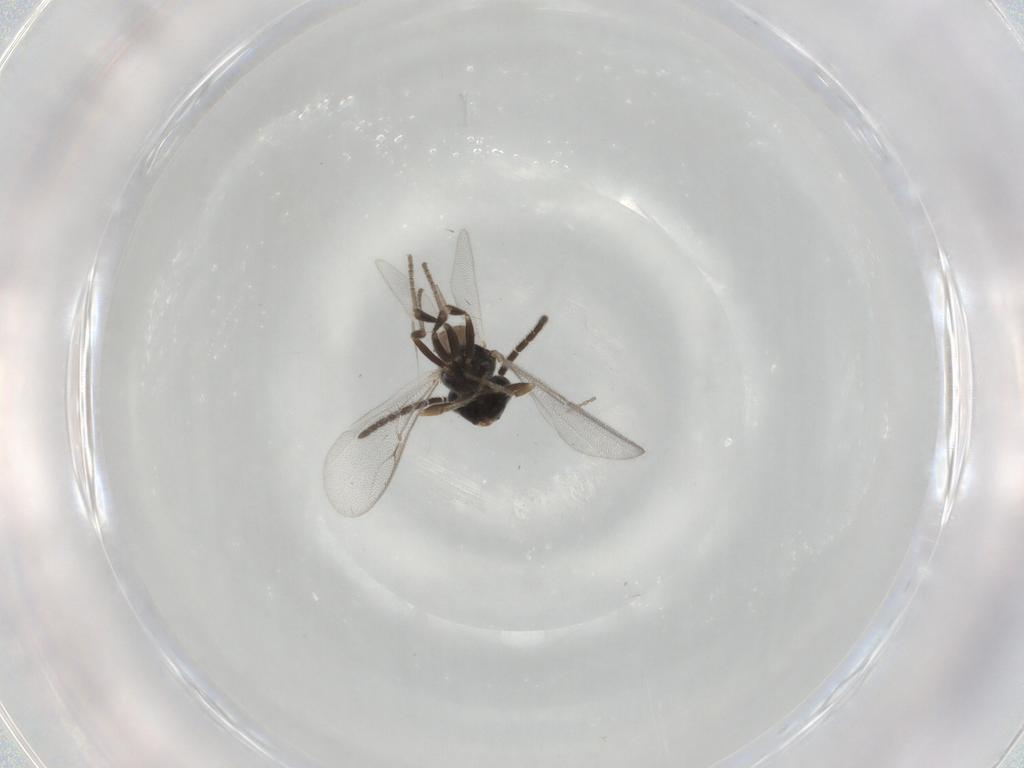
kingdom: Animalia
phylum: Arthropoda
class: Insecta
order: Hymenoptera
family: Dryinidae
